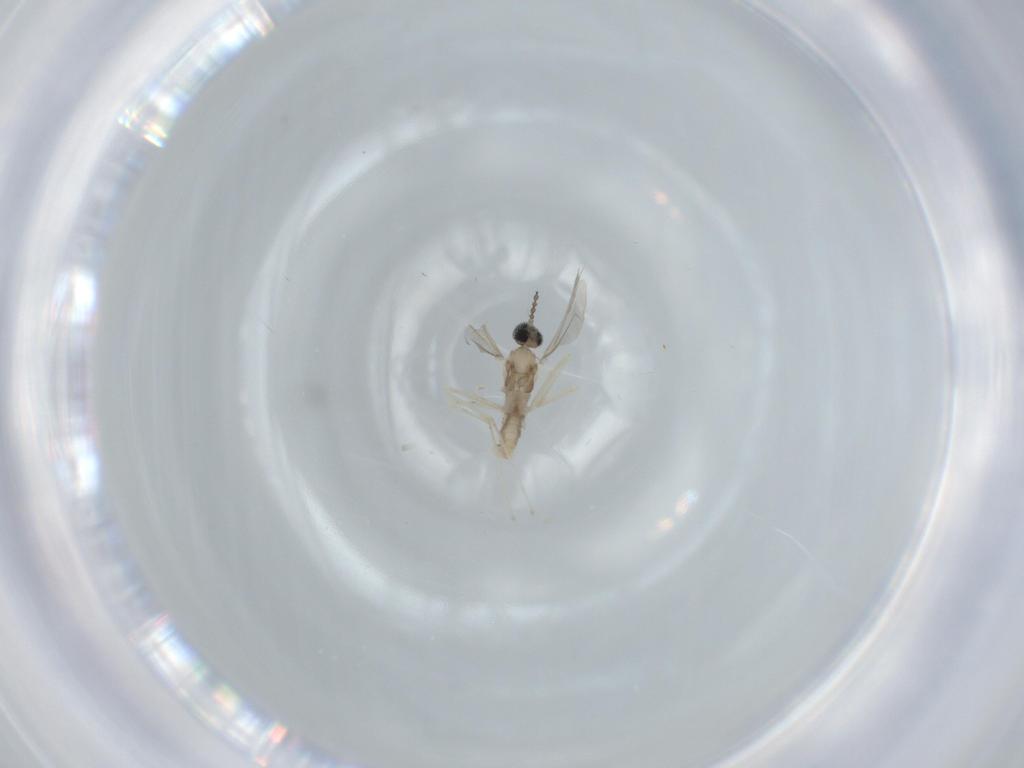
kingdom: Animalia
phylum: Arthropoda
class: Insecta
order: Diptera
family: Cecidomyiidae
